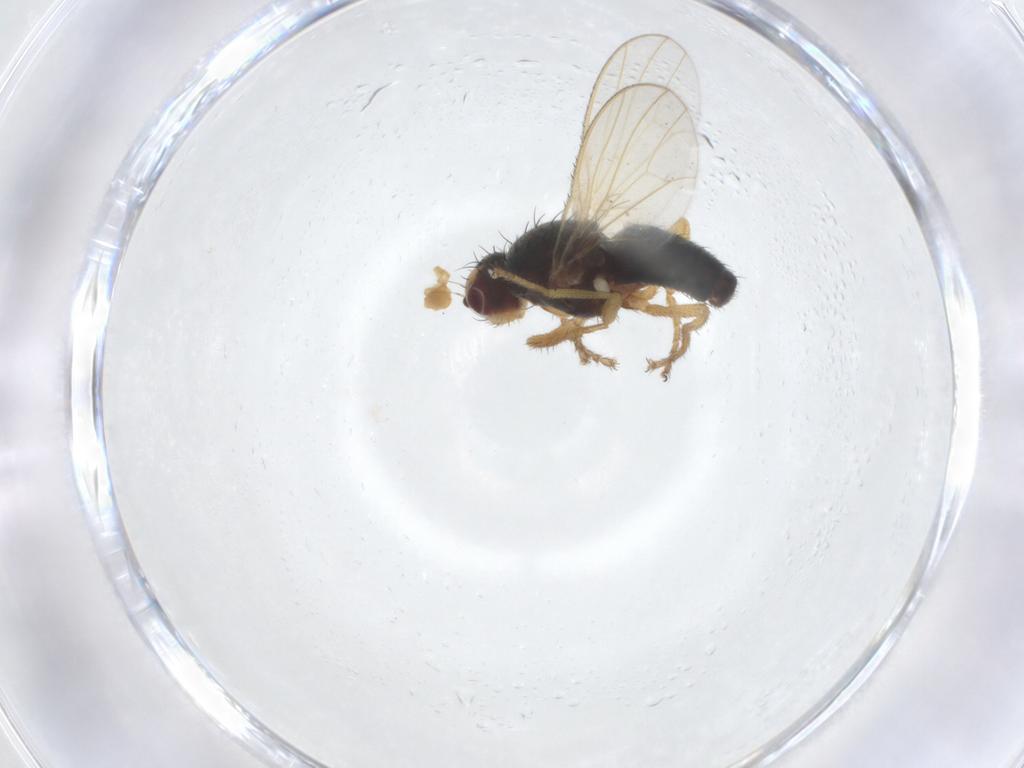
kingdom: Animalia
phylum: Arthropoda
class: Insecta
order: Diptera
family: Heleomyzidae
